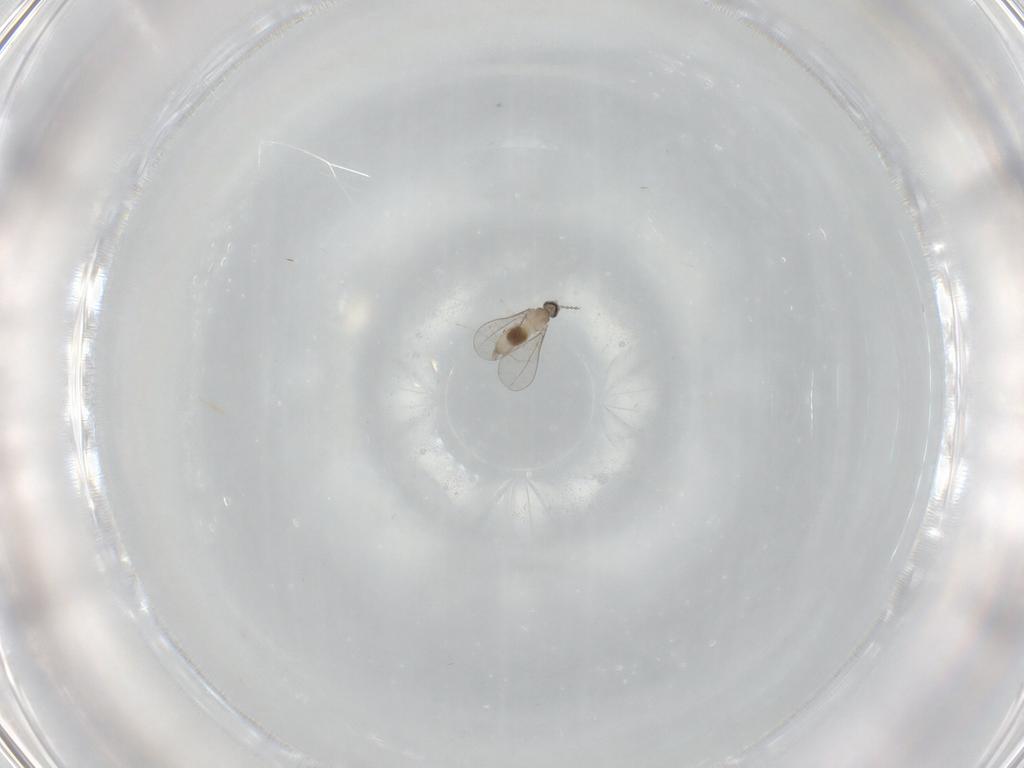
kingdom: Animalia
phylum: Arthropoda
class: Insecta
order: Diptera
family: Cecidomyiidae
